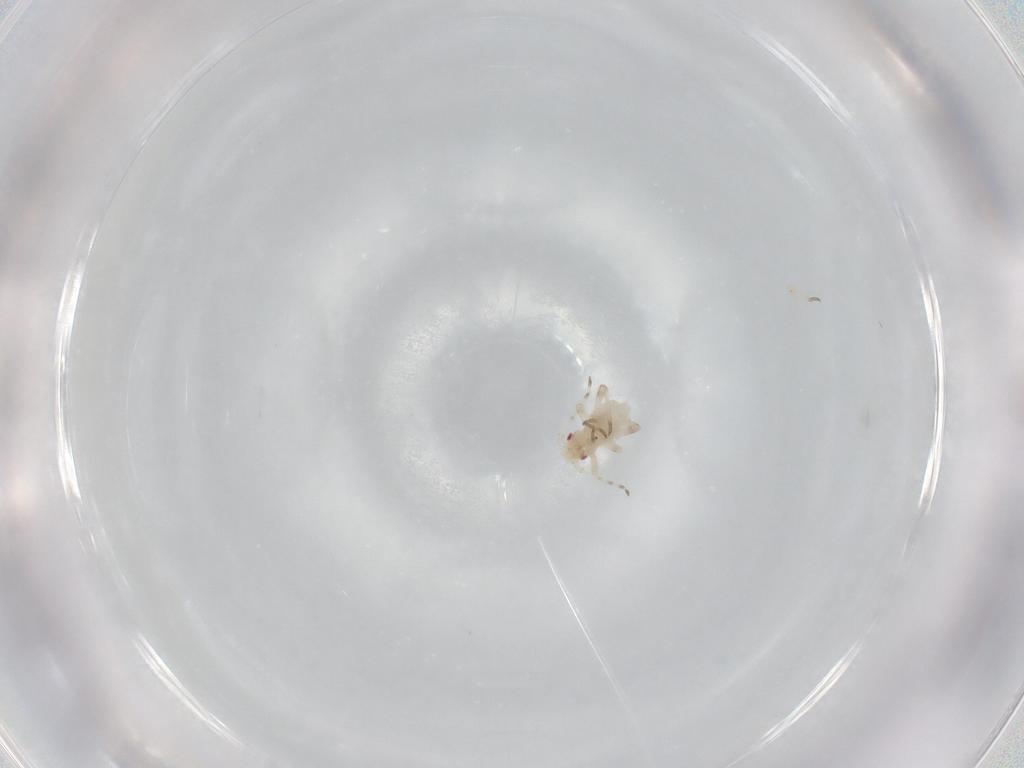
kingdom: Animalia
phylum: Arthropoda
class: Insecta
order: Hemiptera
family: Aphididae
